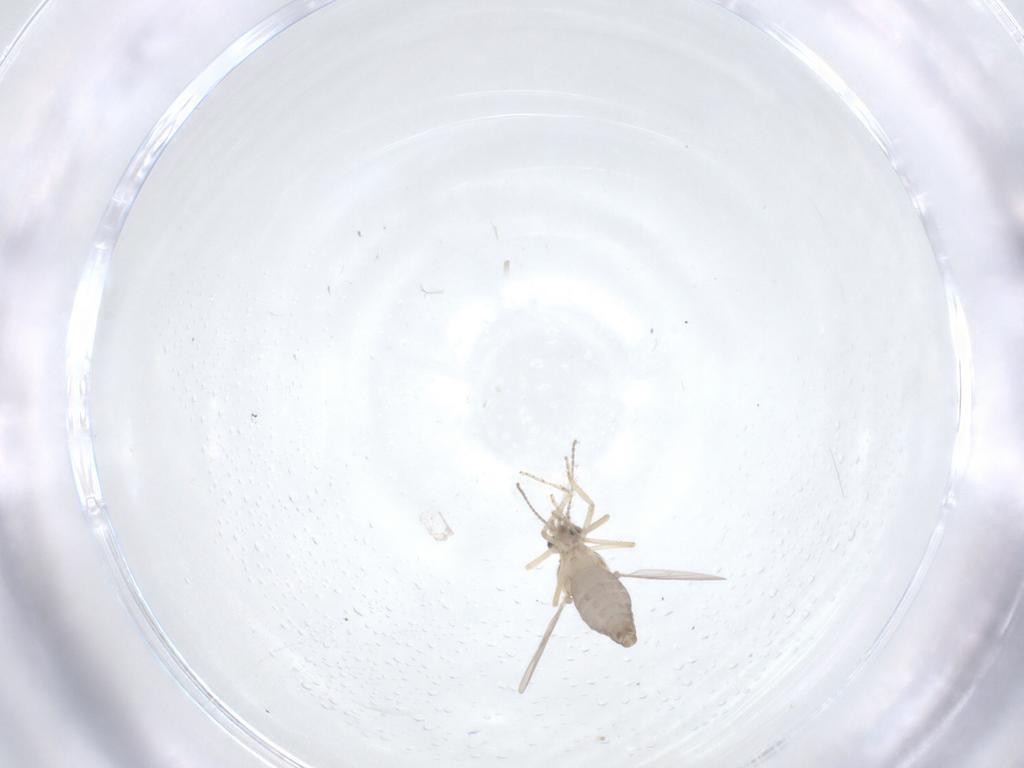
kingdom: Animalia
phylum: Arthropoda
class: Insecta
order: Diptera
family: Ceratopogonidae
